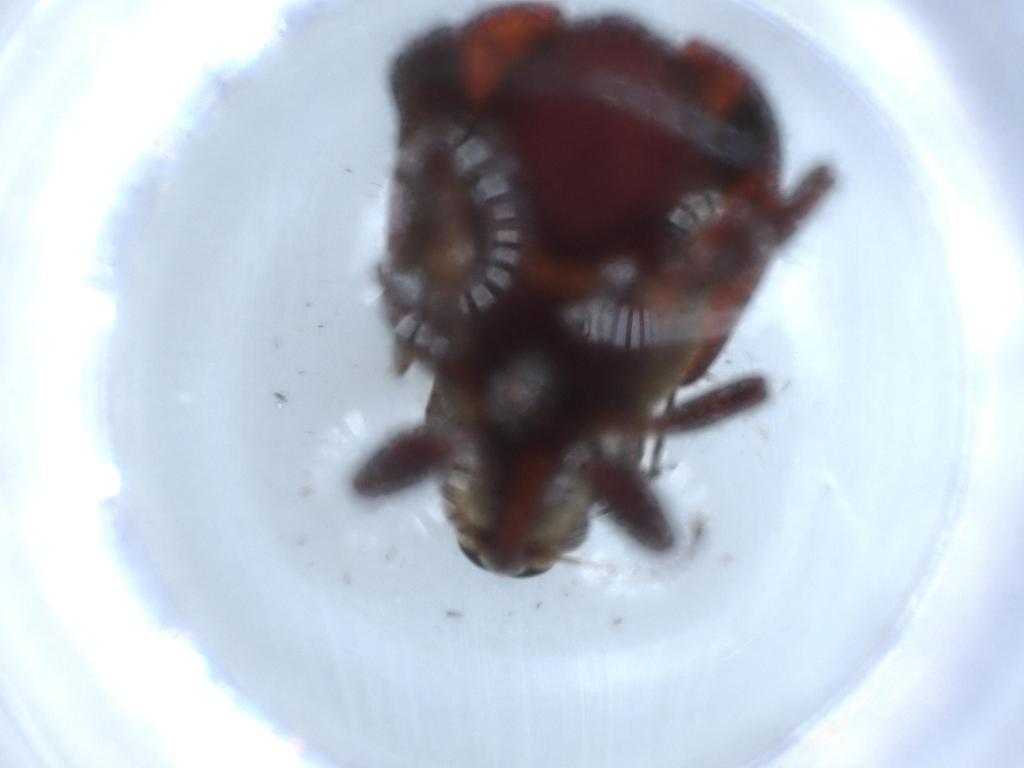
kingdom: Animalia
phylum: Arthropoda
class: Insecta
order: Coleoptera
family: Curculionidae
